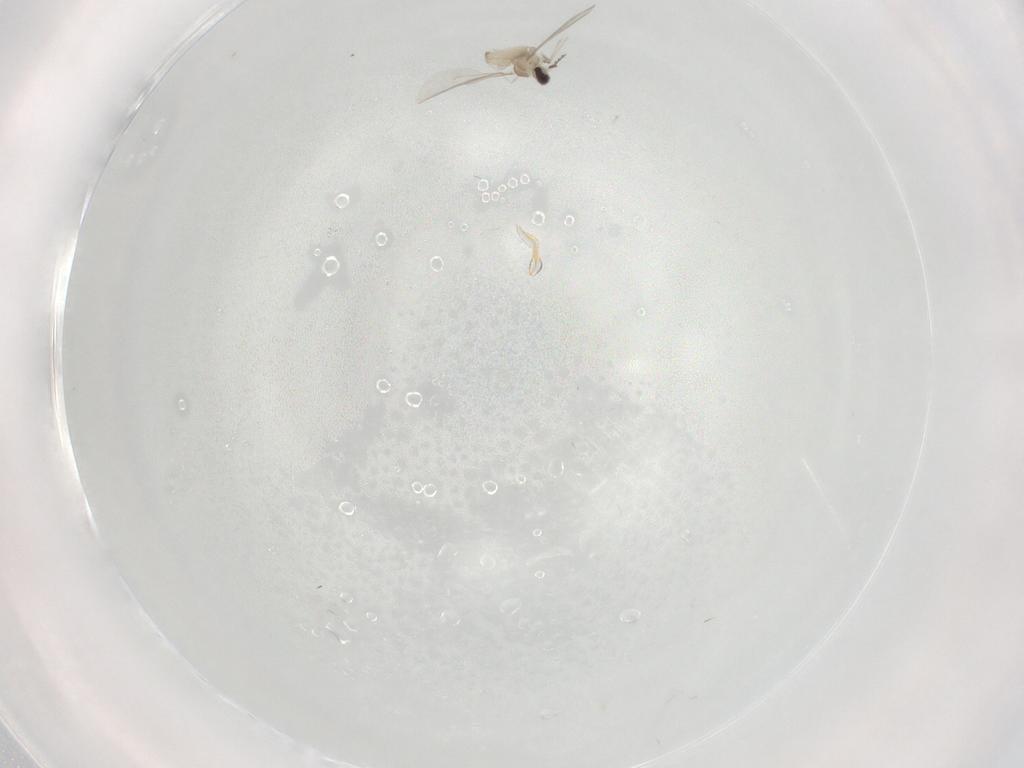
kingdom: Animalia
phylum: Arthropoda
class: Insecta
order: Diptera
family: Cecidomyiidae
